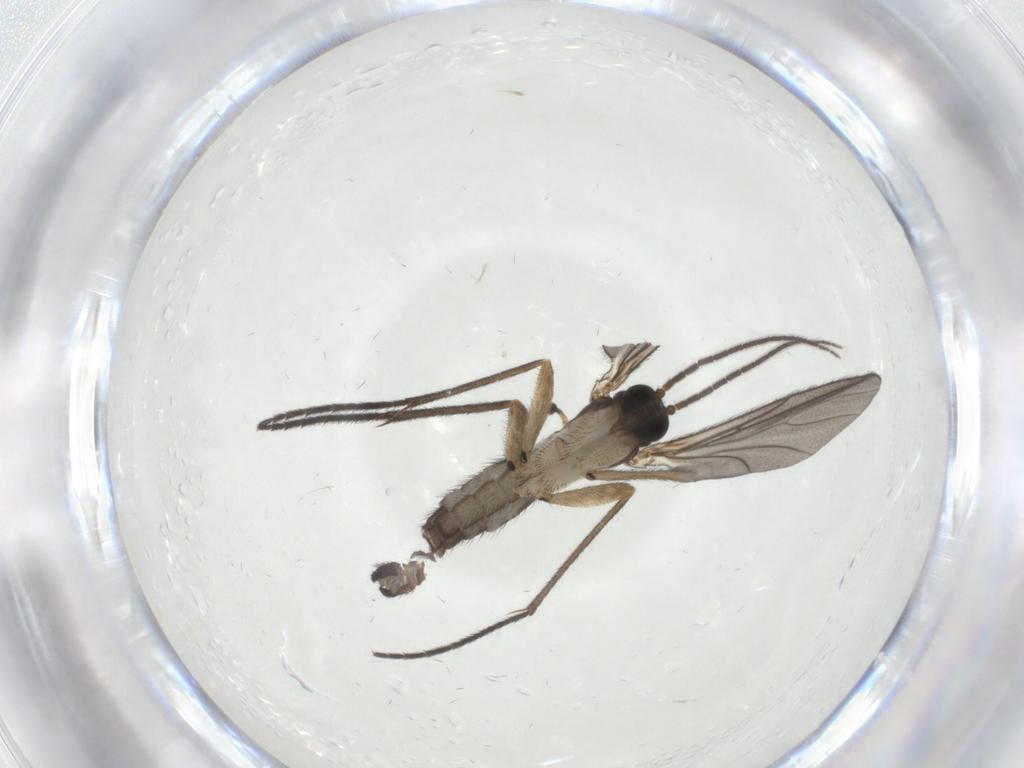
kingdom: Animalia
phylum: Arthropoda
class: Insecta
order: Diptera
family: Sciaridae
